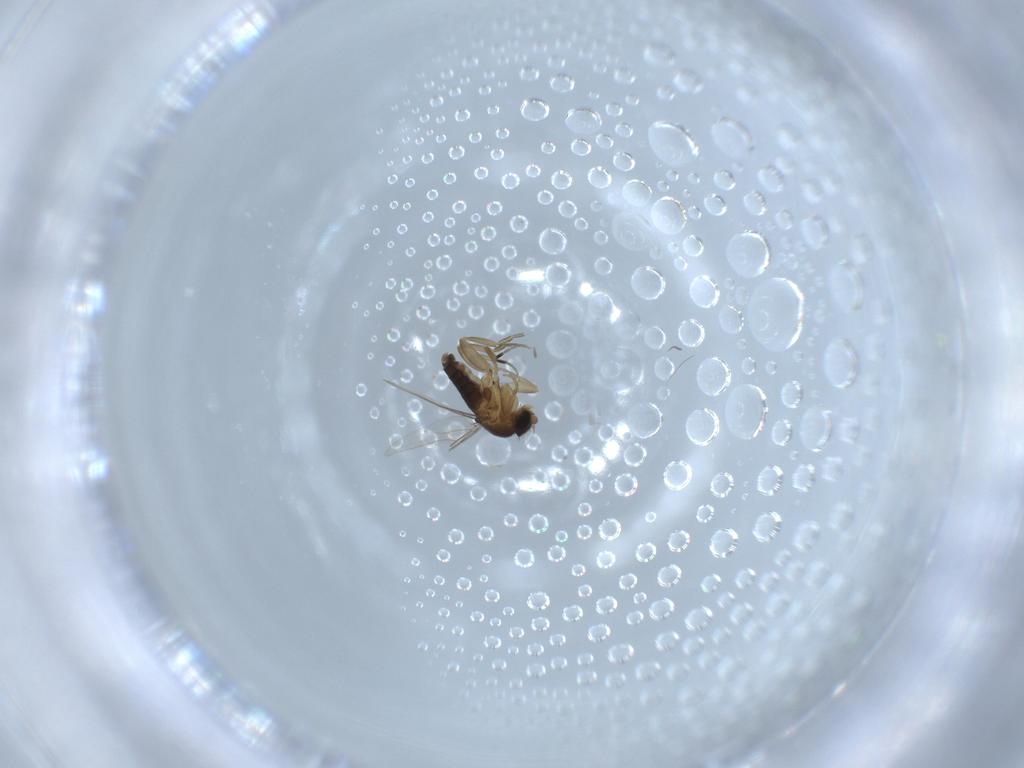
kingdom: Animalia
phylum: Arthropoda
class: Insecta
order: Diptera
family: Phoridae
